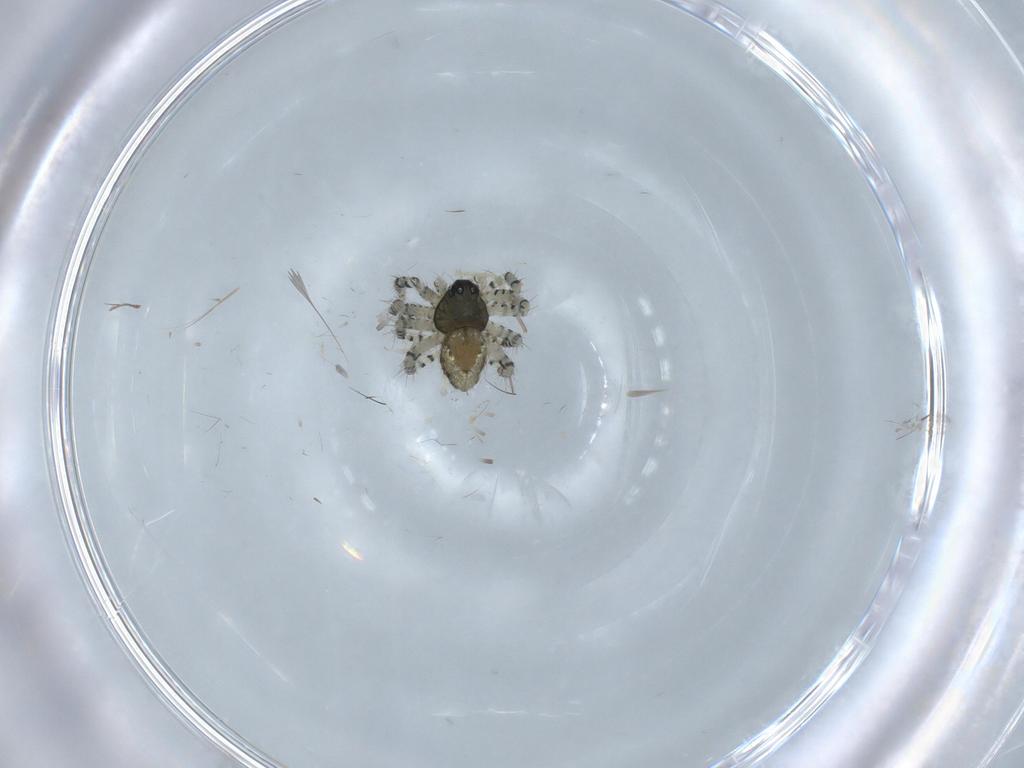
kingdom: Animalia
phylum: Arthropoda
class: Arachnida
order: Araneae
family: Theridiidae
